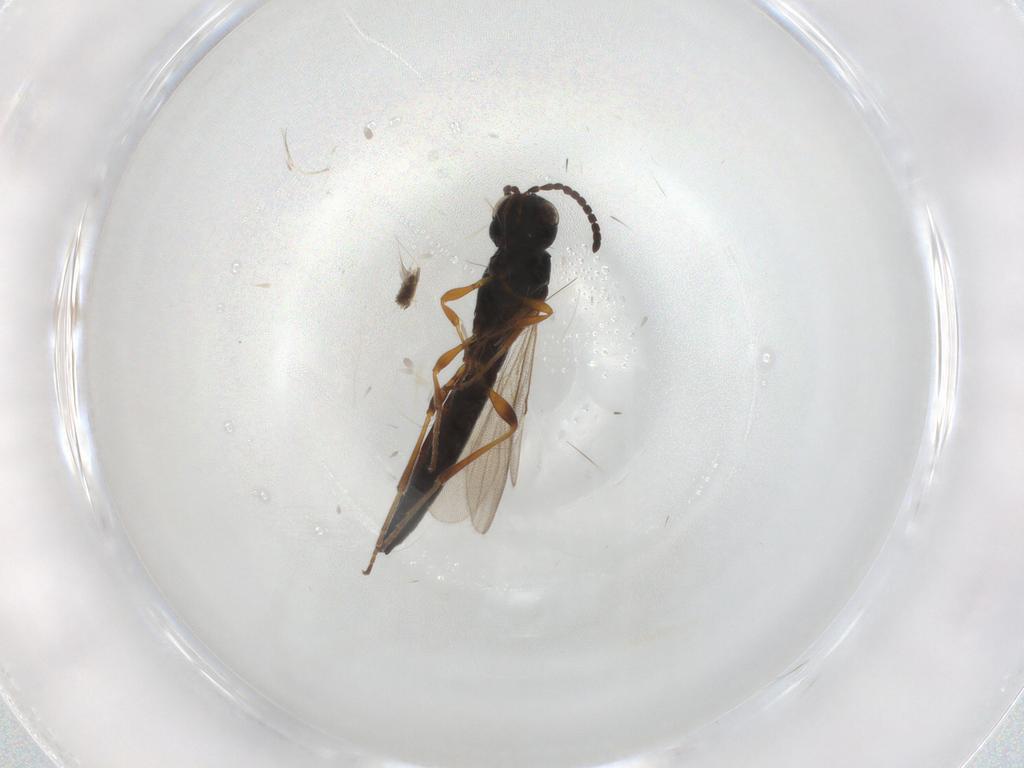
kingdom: Animalia
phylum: Arthropoda
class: Insecta
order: Hymenoptera
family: Scelionidae
